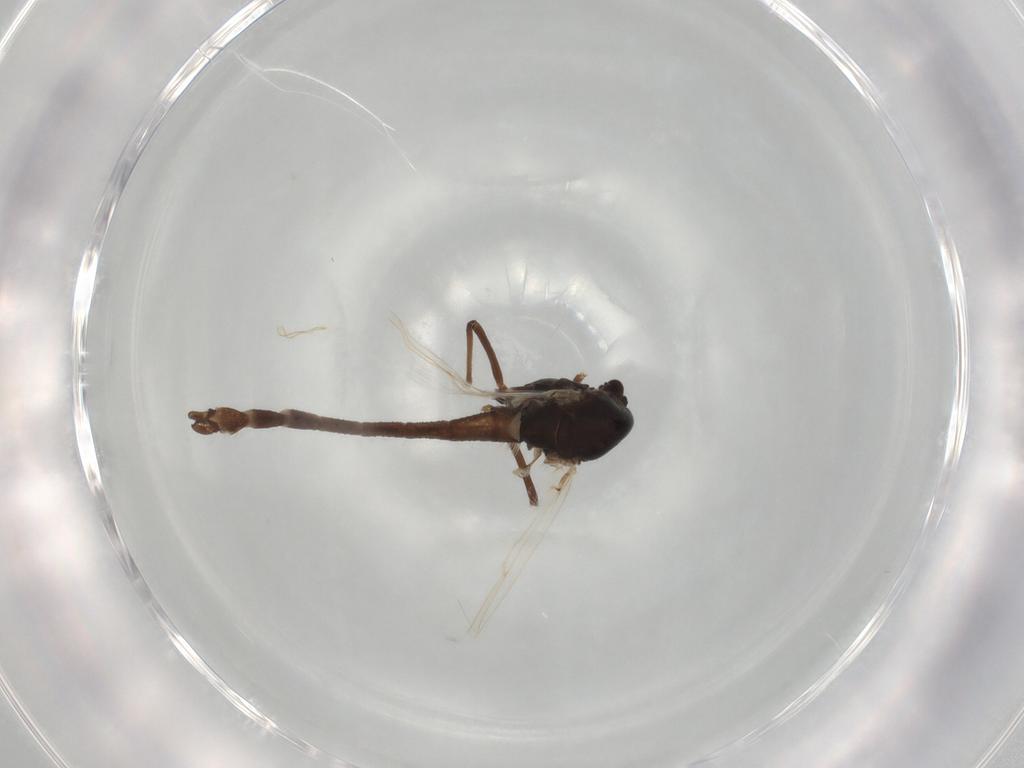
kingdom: Animalia
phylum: Arthropoda
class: Insecta
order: Diptera
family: Chironomidae
